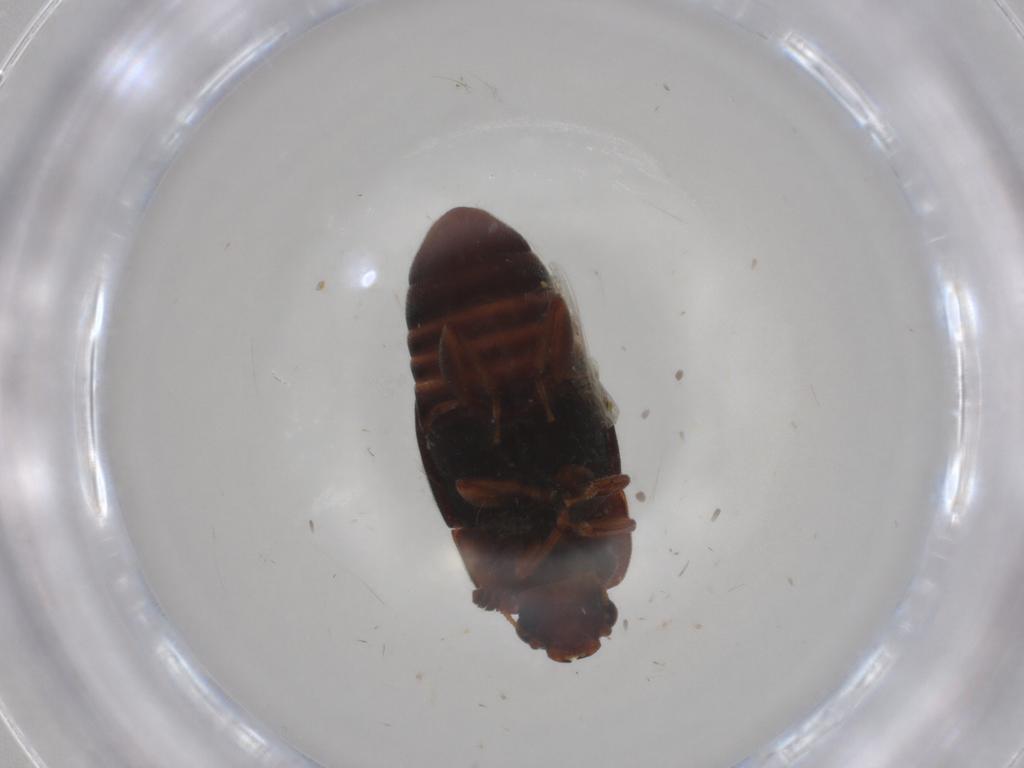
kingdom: Animalia
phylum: Arthropoda
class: Insecta
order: Coleoptera
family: Nitidulidae
